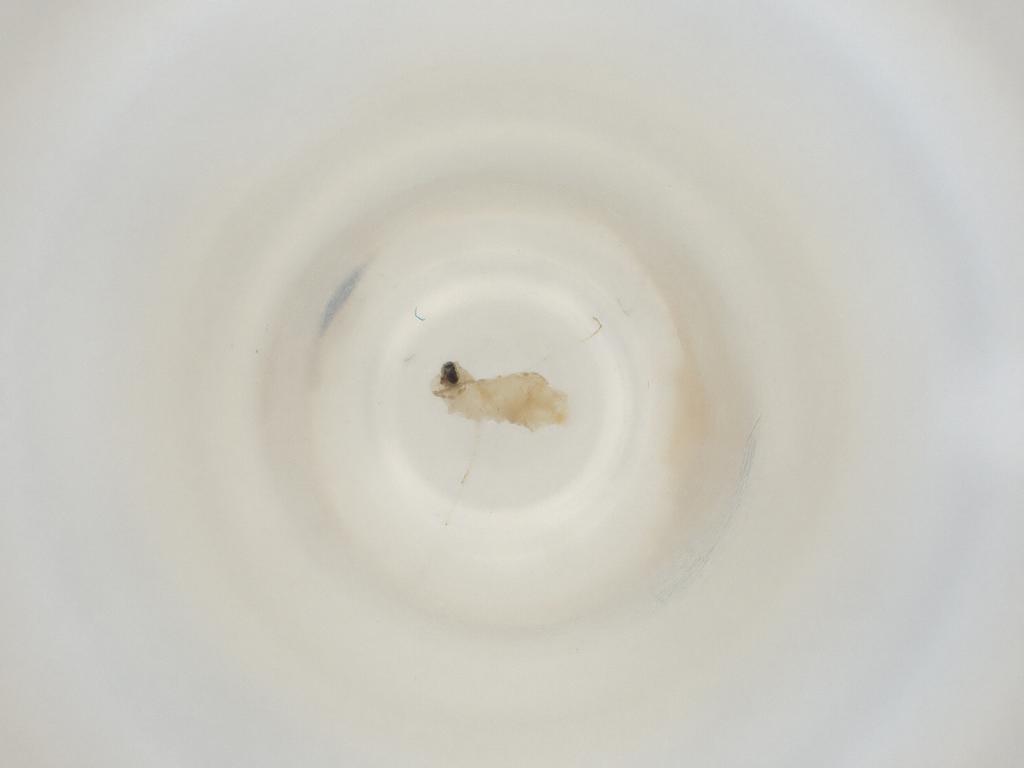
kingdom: Animalia
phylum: Arthropoda
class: Insecta
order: Diptera
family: Cecidomyiidae
